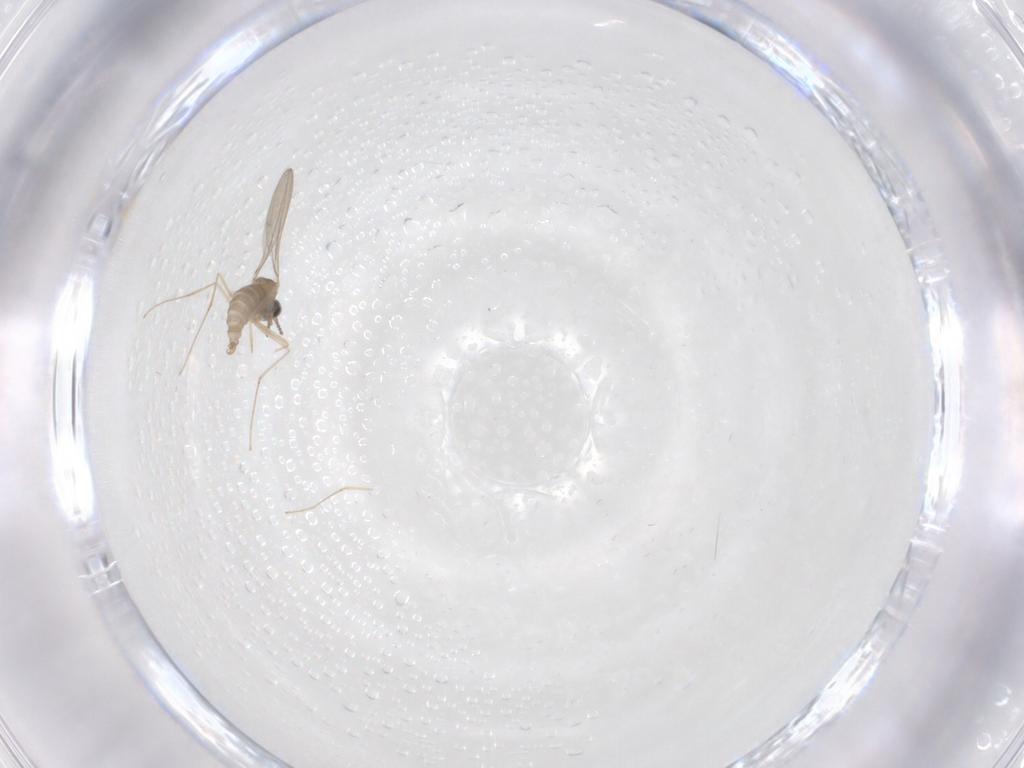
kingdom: Animalia
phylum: Arthropoda
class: Insecta
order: Diptera
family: Cecidomyiidae
